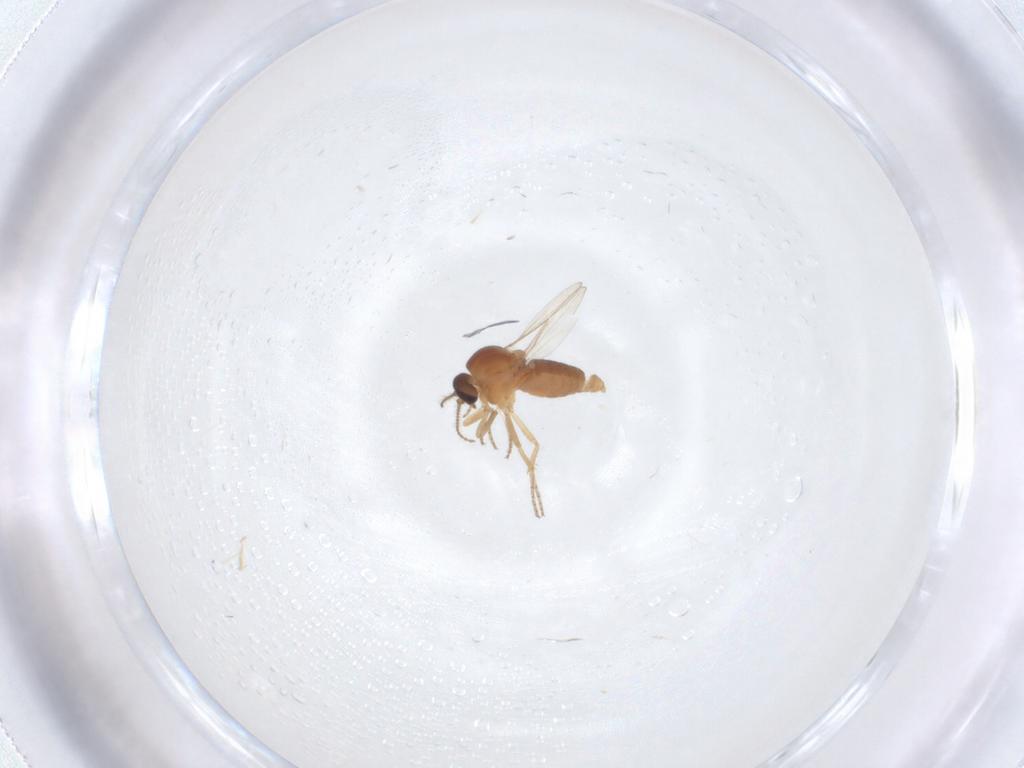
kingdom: Animalia
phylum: Arthropoda
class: Insecta
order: Diptera
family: Ceratopogonidae
